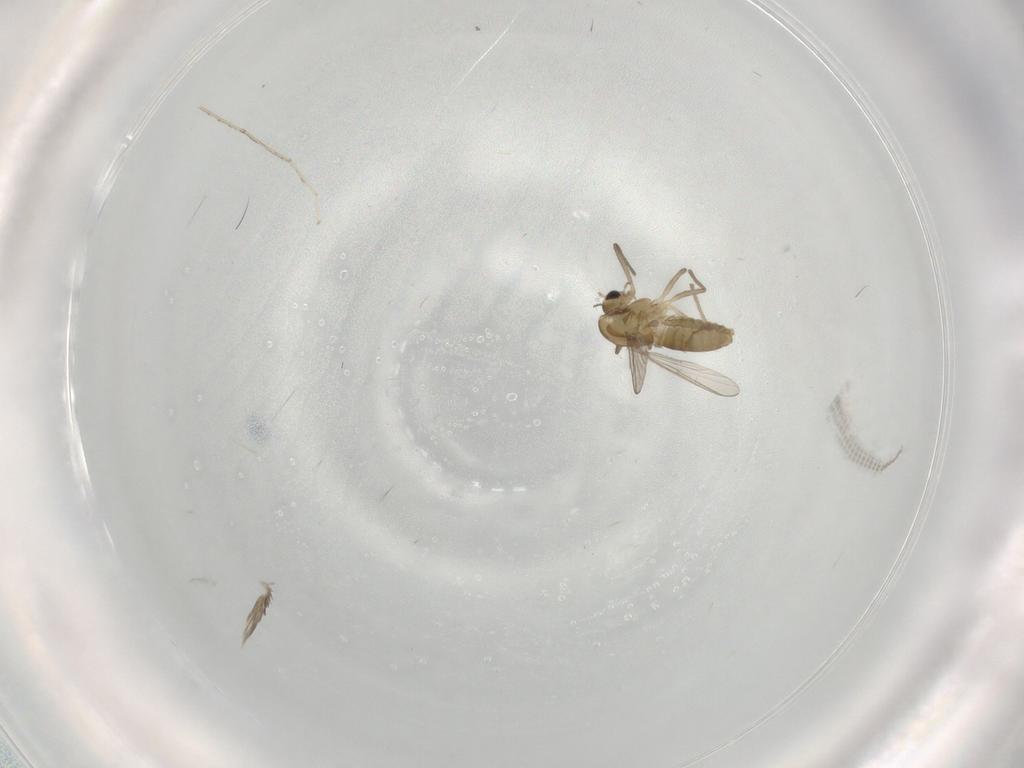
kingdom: Animalia
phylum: Arthropoda
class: Insecta
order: Diptera
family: Chironomidae
